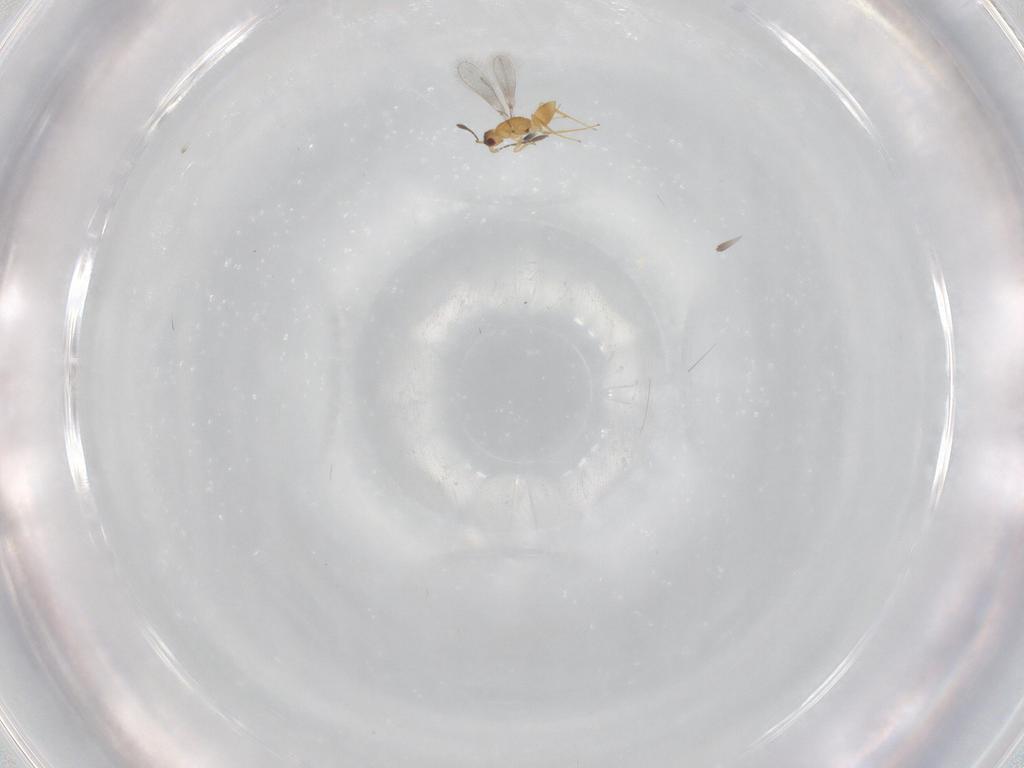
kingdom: Animalia
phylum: Arthropoda
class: Insecta
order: Hymenoptera
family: Mymaridae
